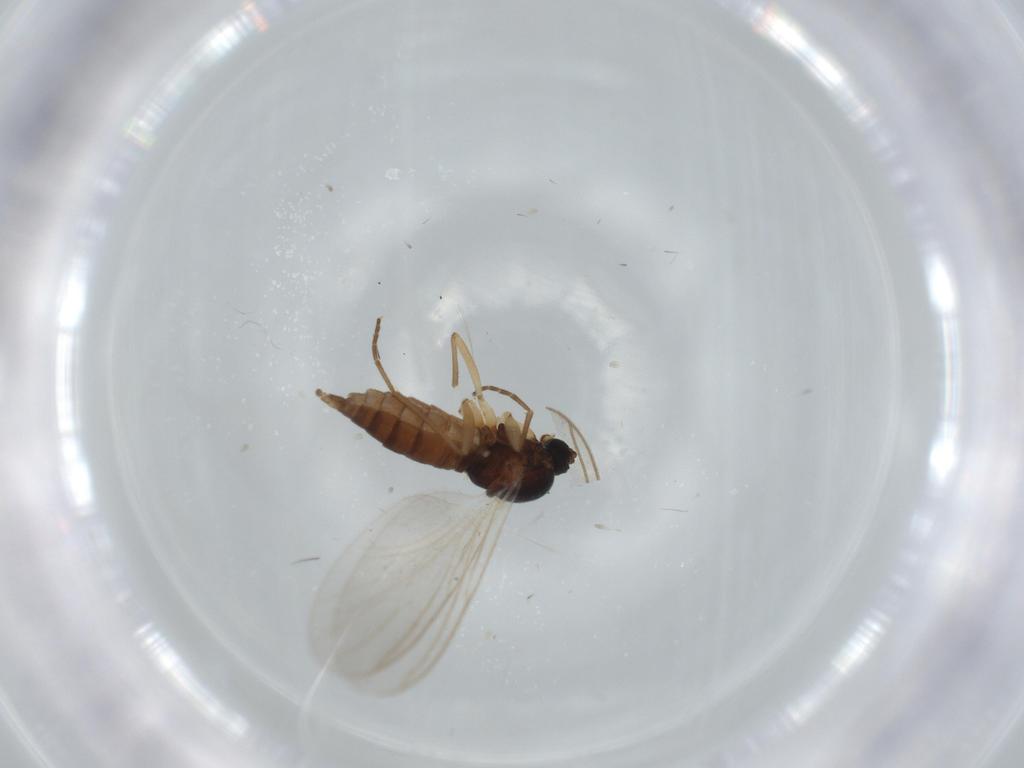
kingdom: Animalia
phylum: Arthropoda
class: Insecta
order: Diptera
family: Ceratopogonidae
